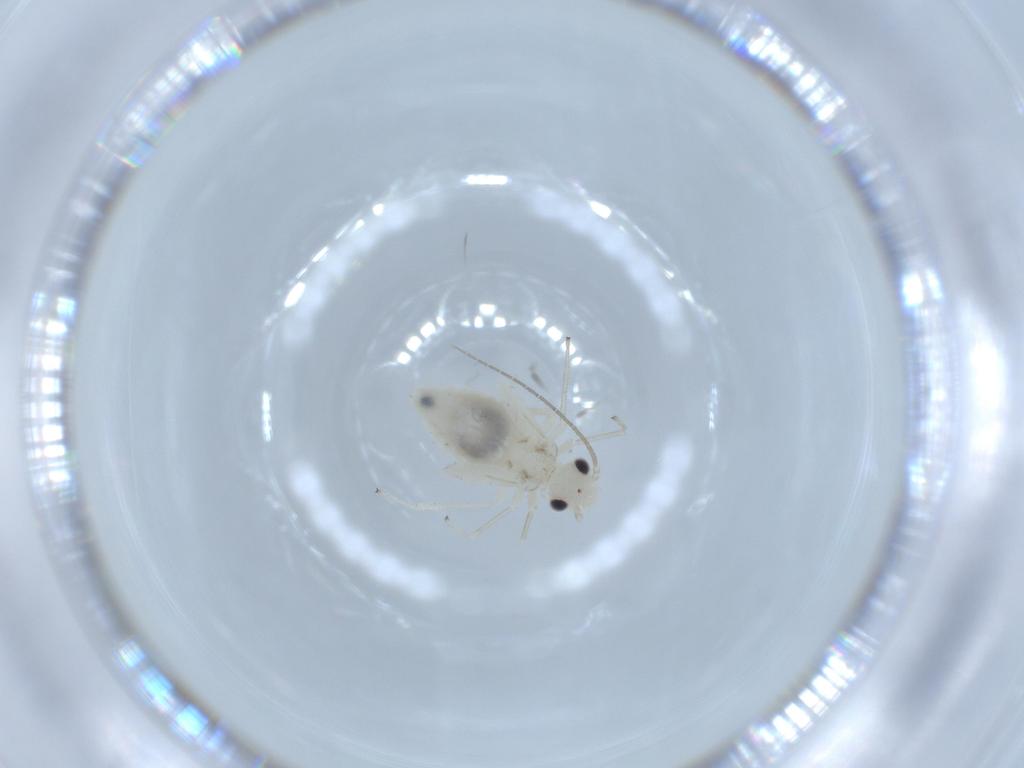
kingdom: Animalia
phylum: Arthropoda
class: Insecta
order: Psocodea
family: Caeciliusidae
